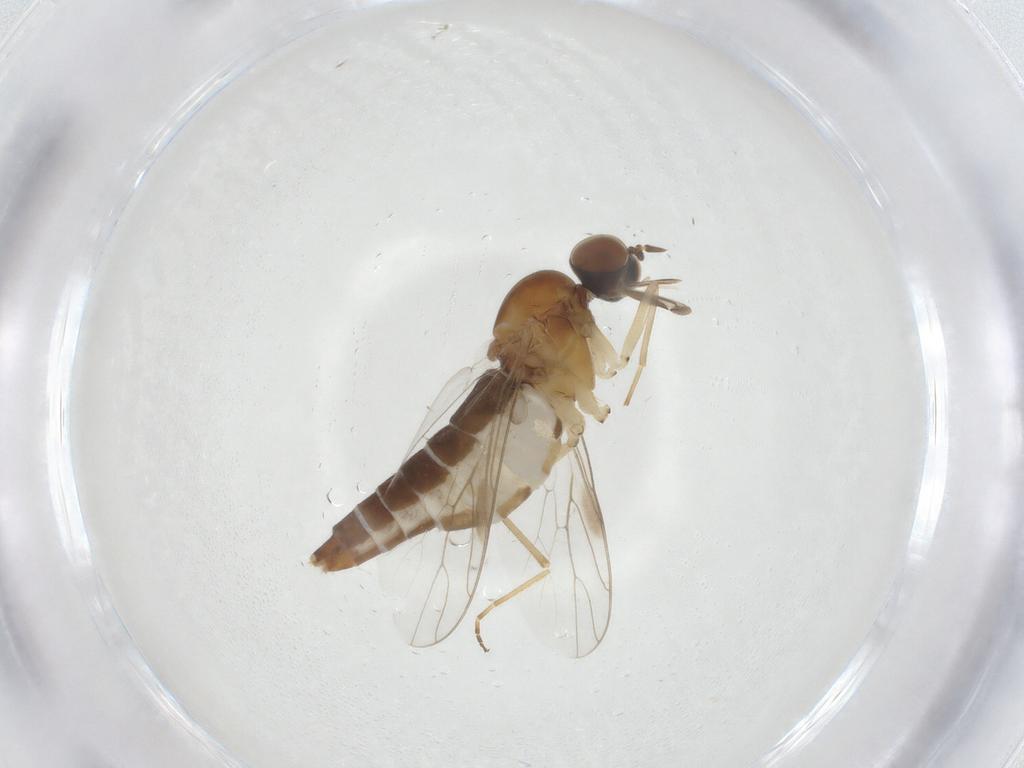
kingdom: Animalia
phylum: Arthropoda
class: Insecta
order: Diptera
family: Scenopinidae
